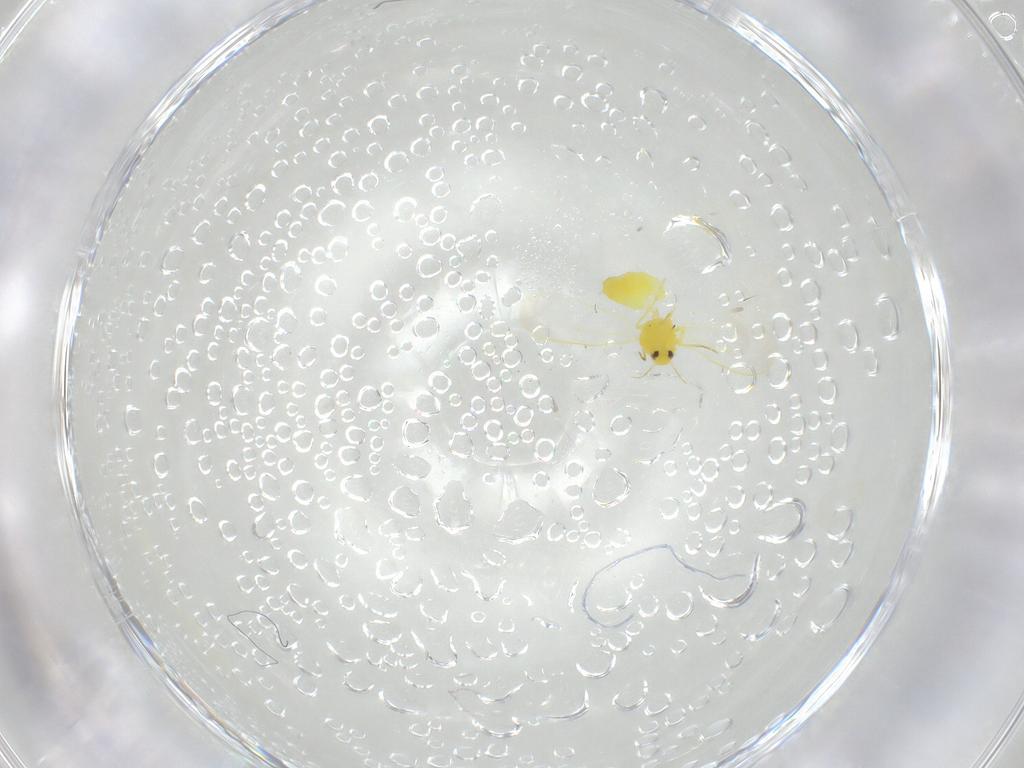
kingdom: Animalia
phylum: Arthropoda
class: Insecta
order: Hemiptera
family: Aleyrodidae
